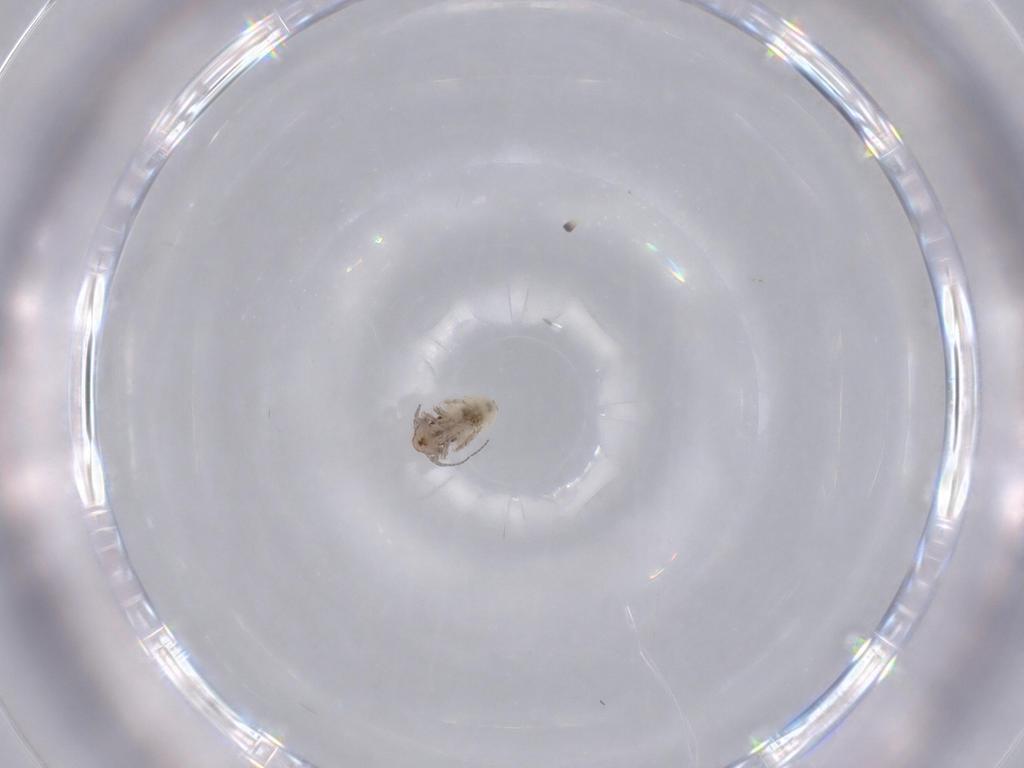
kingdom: Animalia
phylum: Arthropoda
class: Insecta
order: Psocodea
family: Lepidopsocidae
